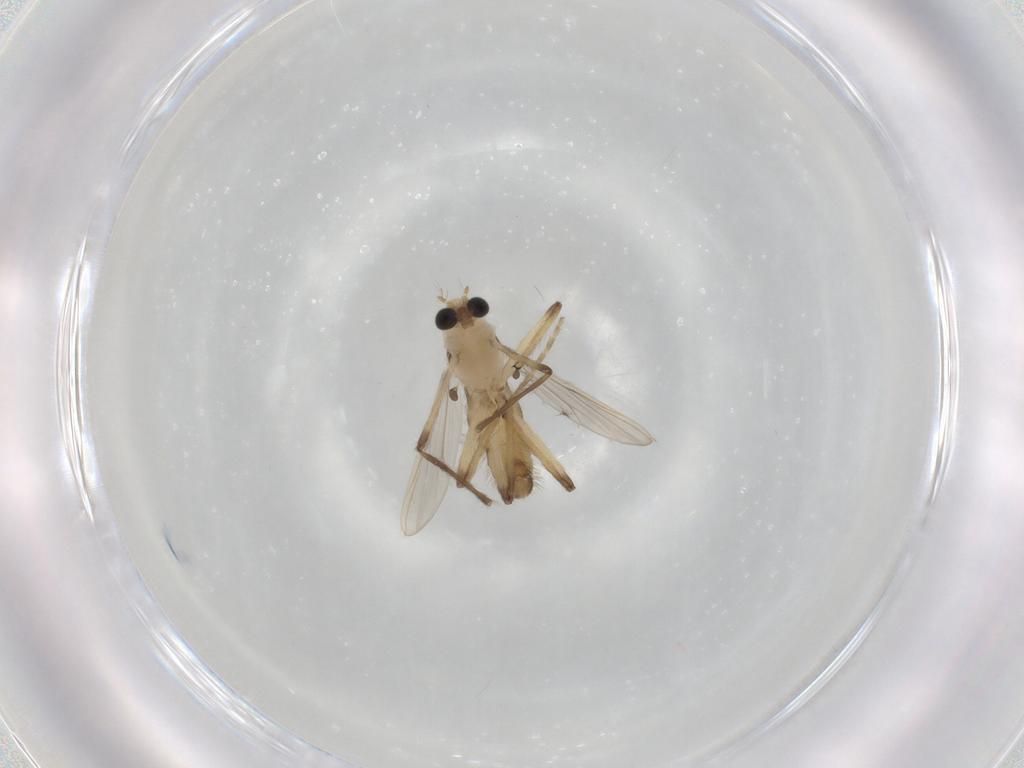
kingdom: Animalia
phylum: Arthropoda
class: Insecta
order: Diptera
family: Chironomidae
